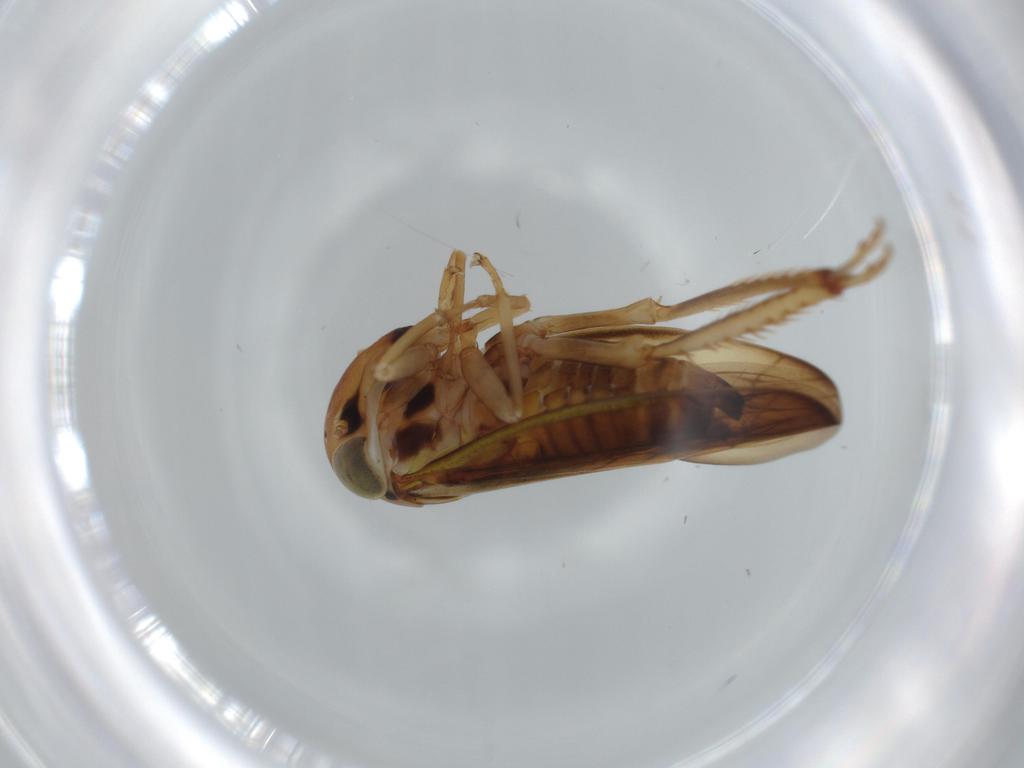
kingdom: Animalia
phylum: Arthropoda
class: Insecta
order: Hemiptera
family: Cicadellidae
